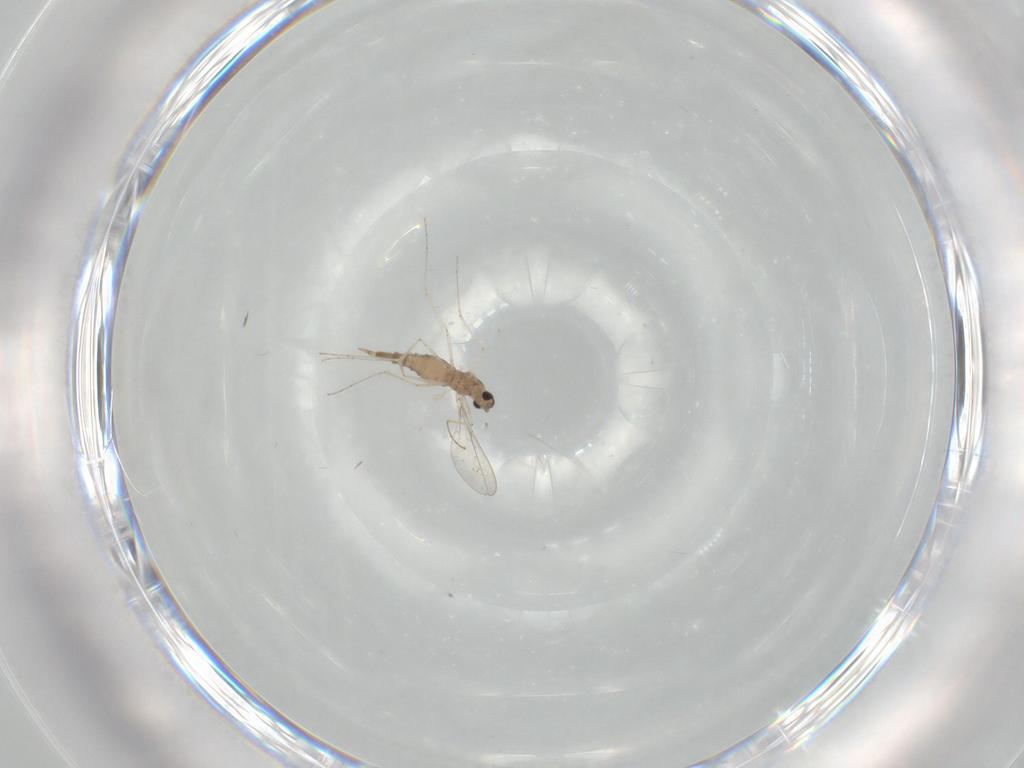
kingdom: Animalia
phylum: Arthropoda
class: Insecta
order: Diptera
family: Cecidomyiidae
